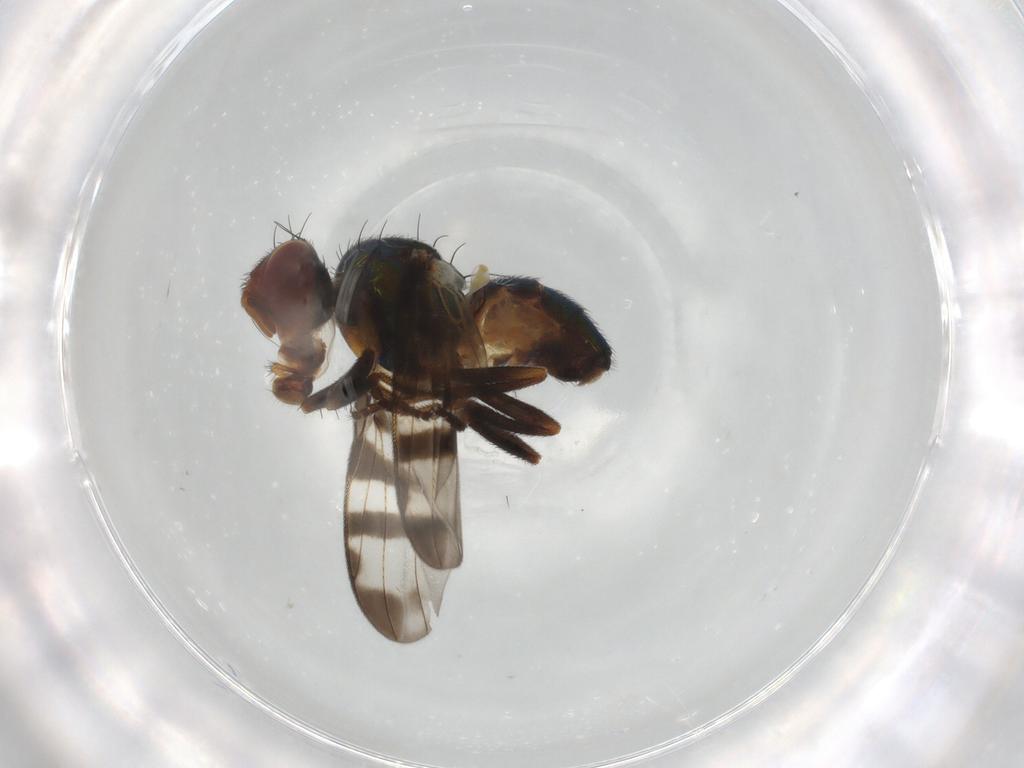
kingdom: Animalia
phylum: Arthropoda
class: Insecta
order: Diptera
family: Platystomatidae
